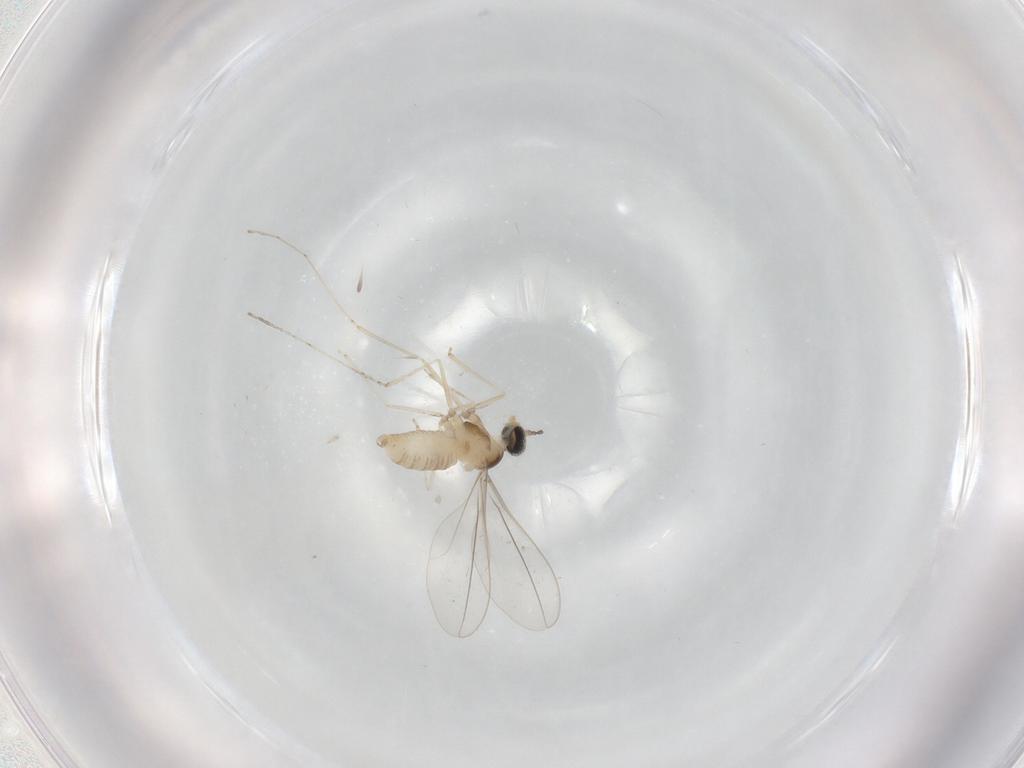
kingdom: Animalia
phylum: Arthropoda
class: Insecta
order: Diptera
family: Cecidomyiidae
